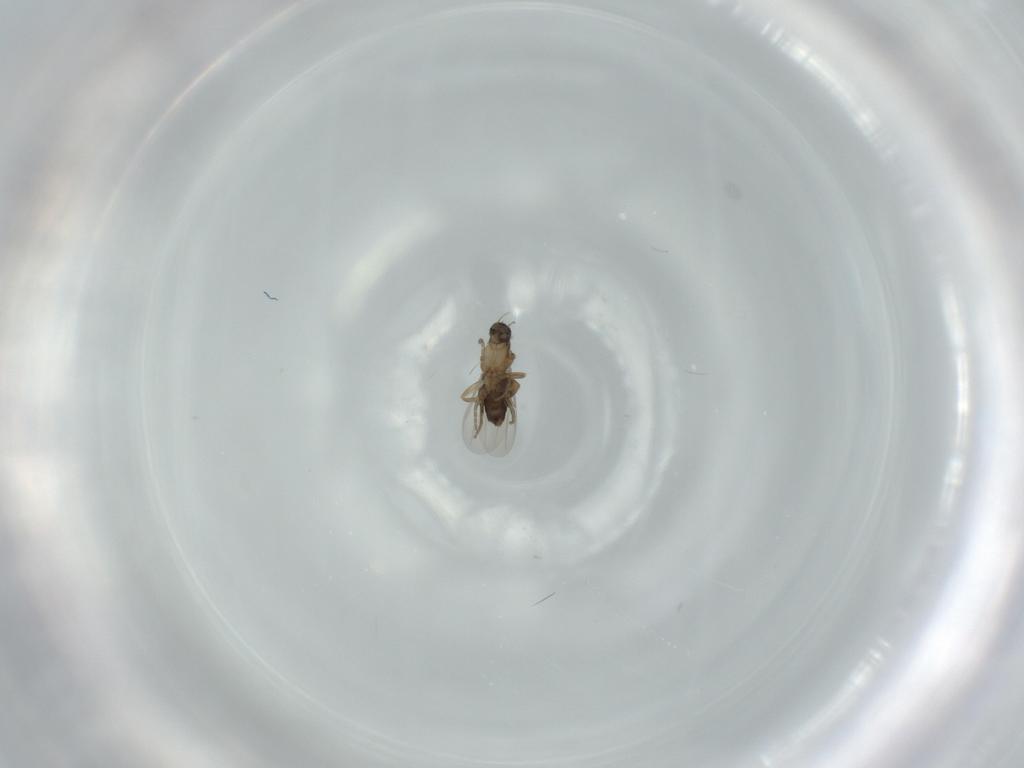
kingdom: Animalia
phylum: Arthropoda
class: Insecta
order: Diptera
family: Phoridae
